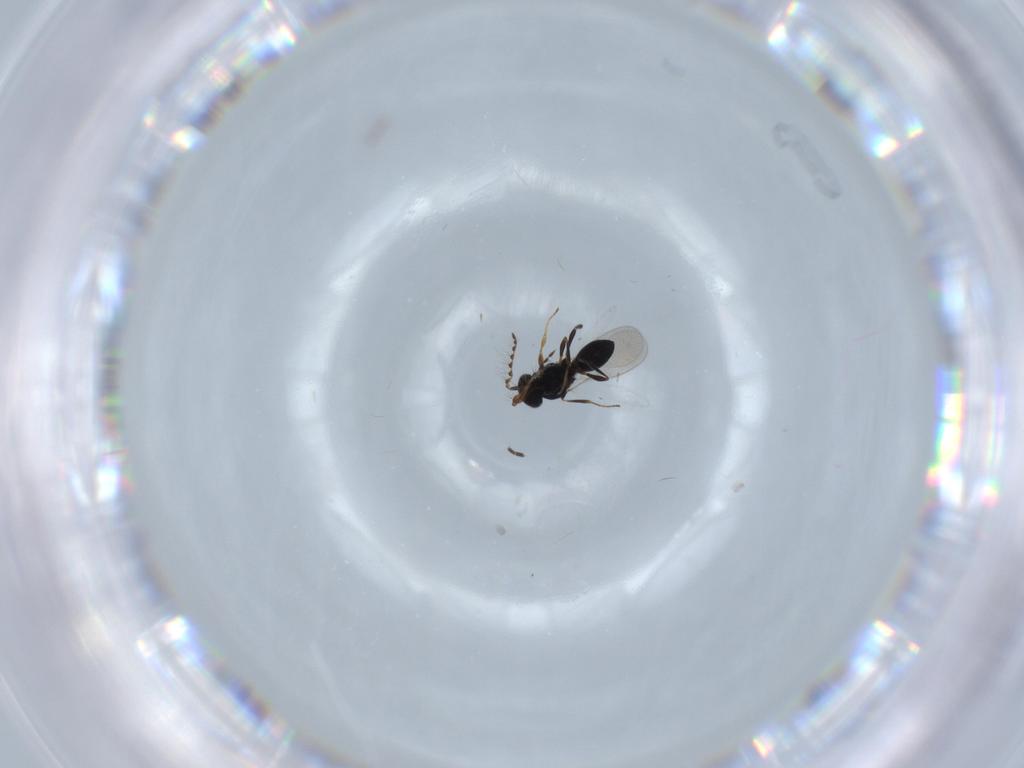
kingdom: Animalia
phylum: Arthropoda
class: Insecta
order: Hymenoptera
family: Platygastridae
